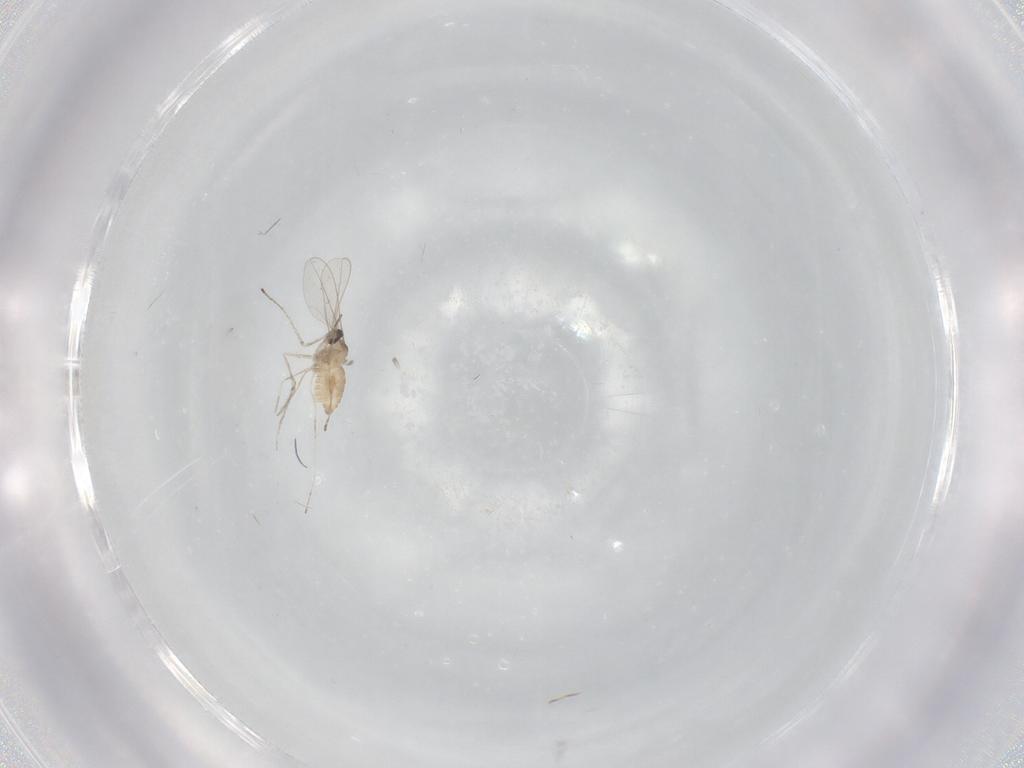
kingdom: Animalia
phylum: Arthropoda
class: Insecta
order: Diptera
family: Cecidomyiidae
